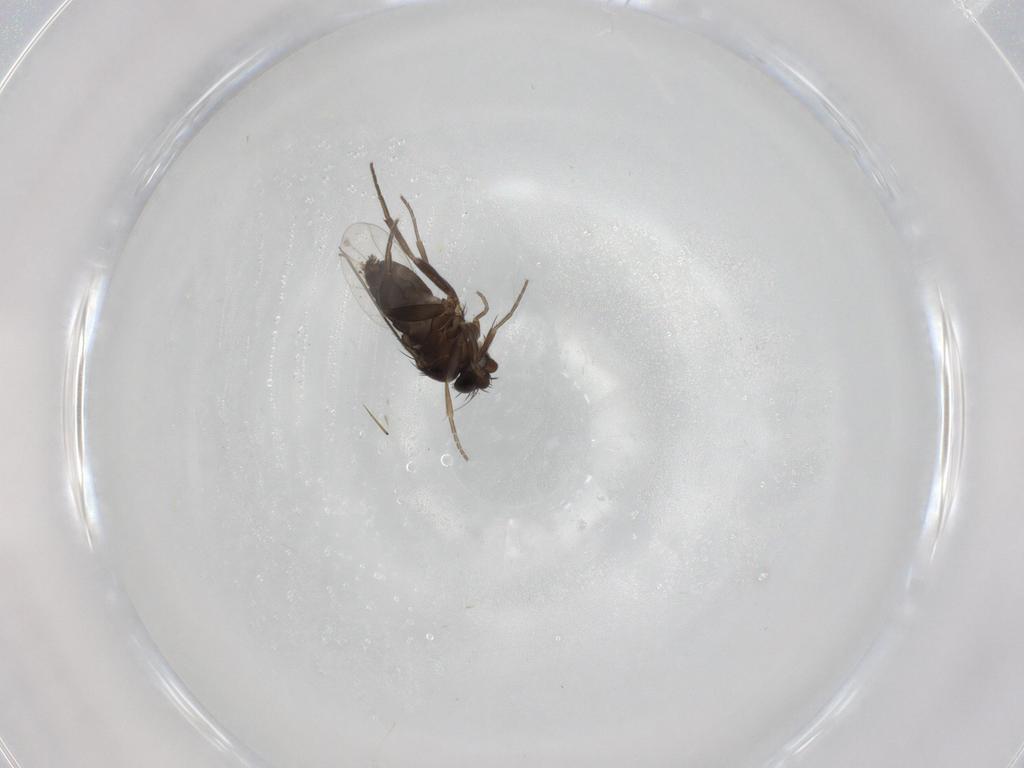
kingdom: Animalia
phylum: Arthropoda
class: Insecta
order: Diptera
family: Phoridae
